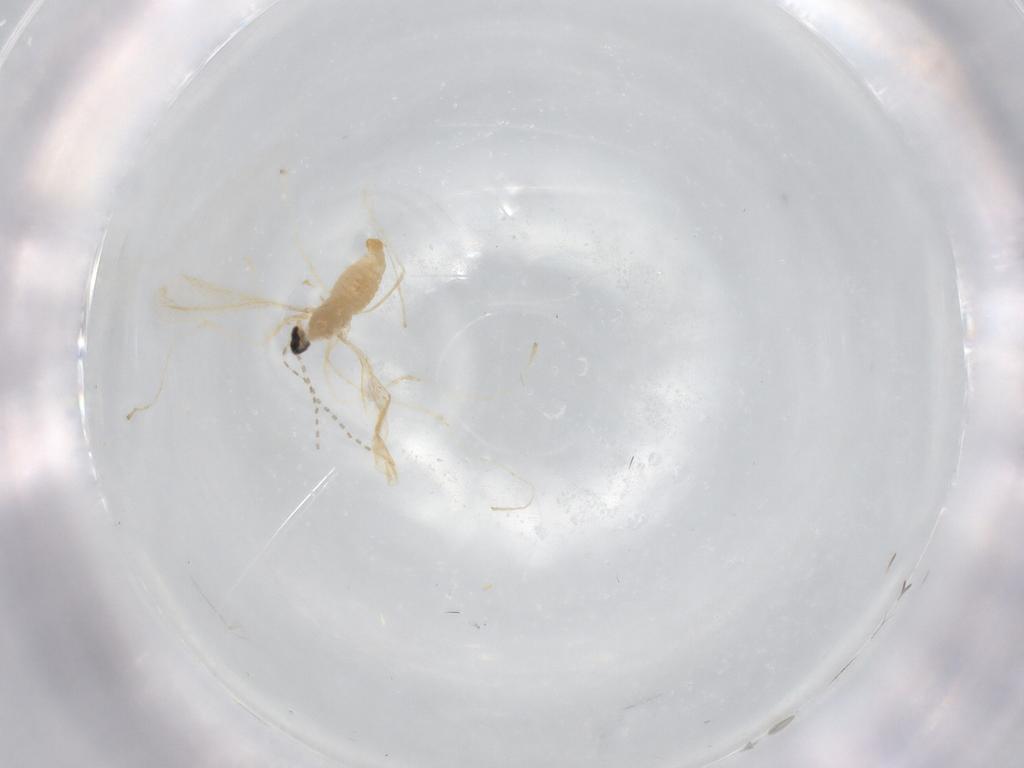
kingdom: Animalia
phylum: Arthropoda
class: Insecta
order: Diptera
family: Cecidomyiidae
